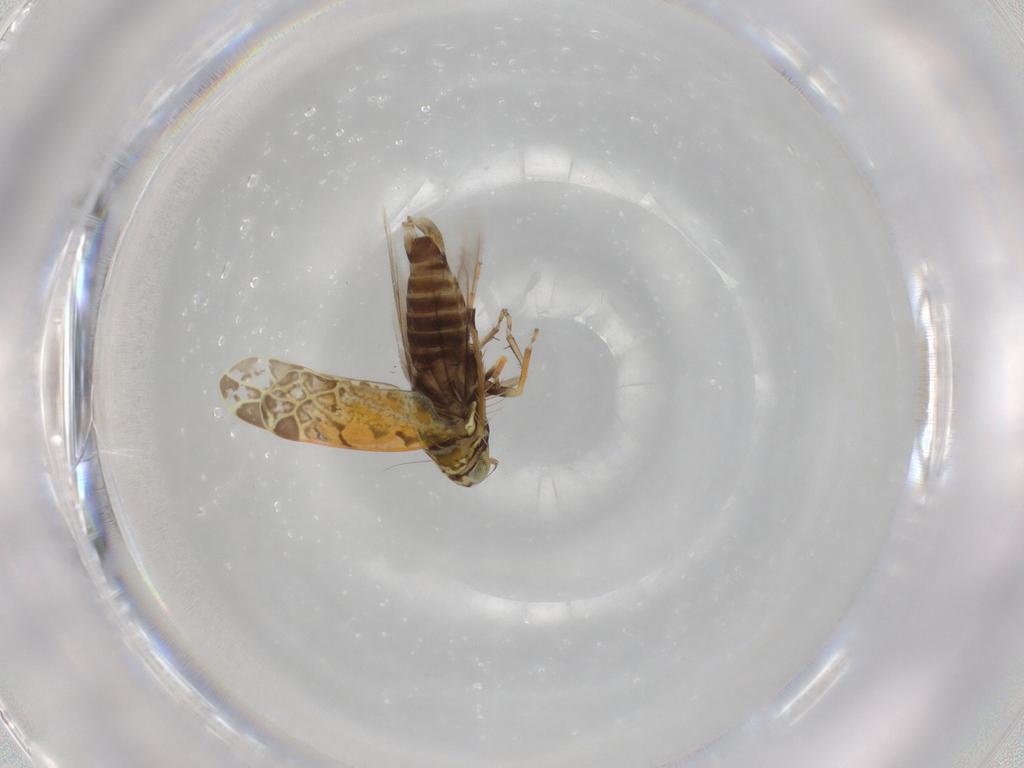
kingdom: Animalia
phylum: Arthropoda
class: Insecta
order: Hemiptera
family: Cicadellidae
